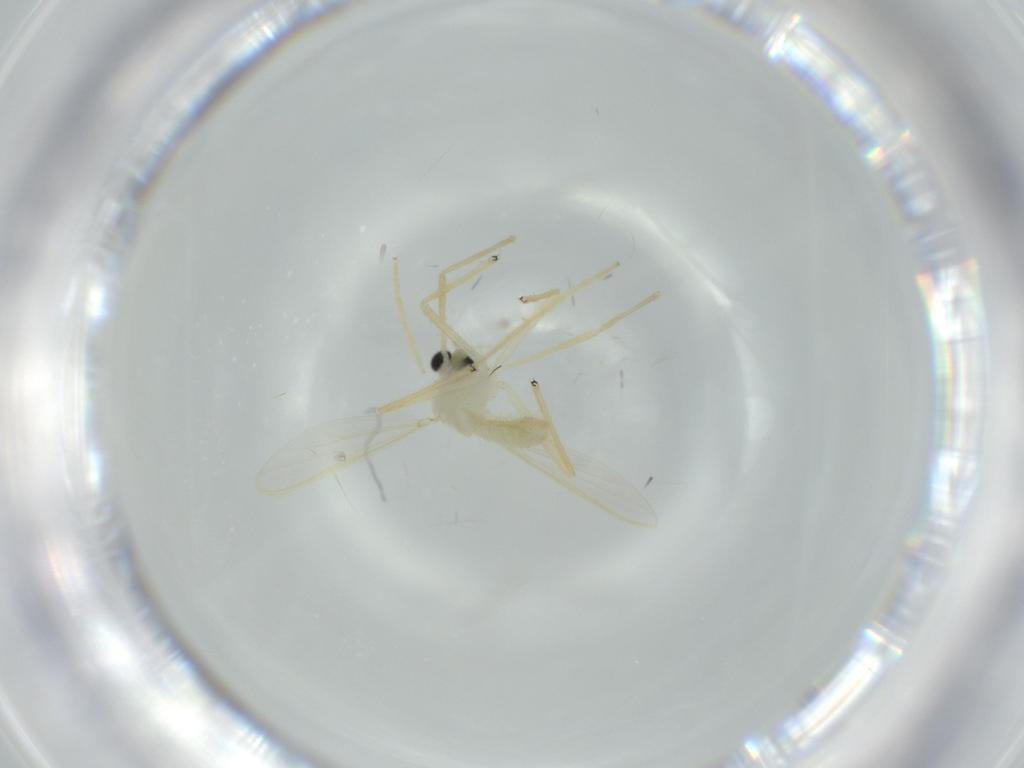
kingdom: Animalia
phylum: Arthropoda
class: Insecta
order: Diptera
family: Chironomidae
